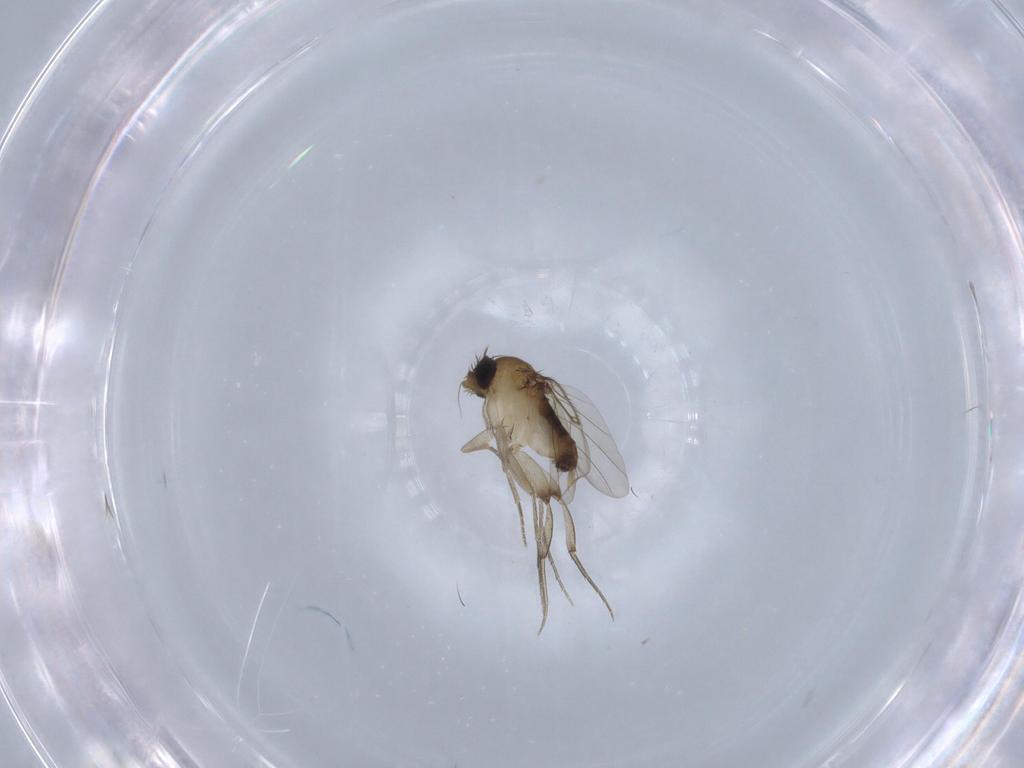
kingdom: Animalia
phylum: Arthropoda
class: Insecta
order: Diptera
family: Phoridae
